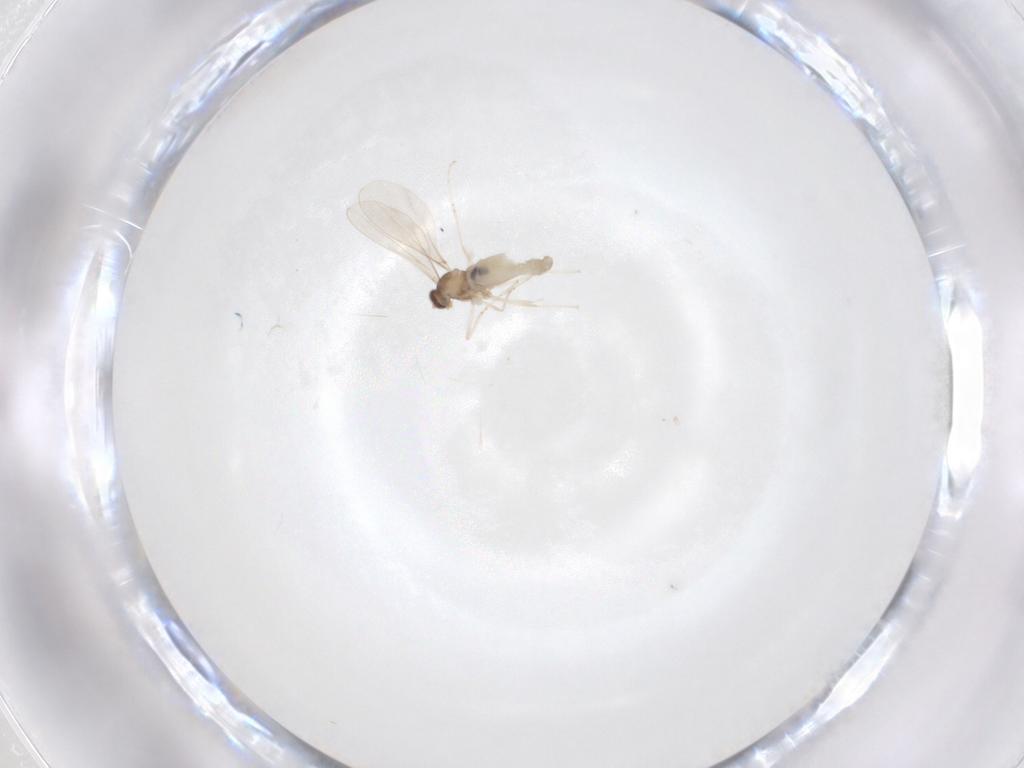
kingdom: Animalia
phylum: Arthropoda
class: Insecta
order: Diptera
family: Cecidomyiidae
